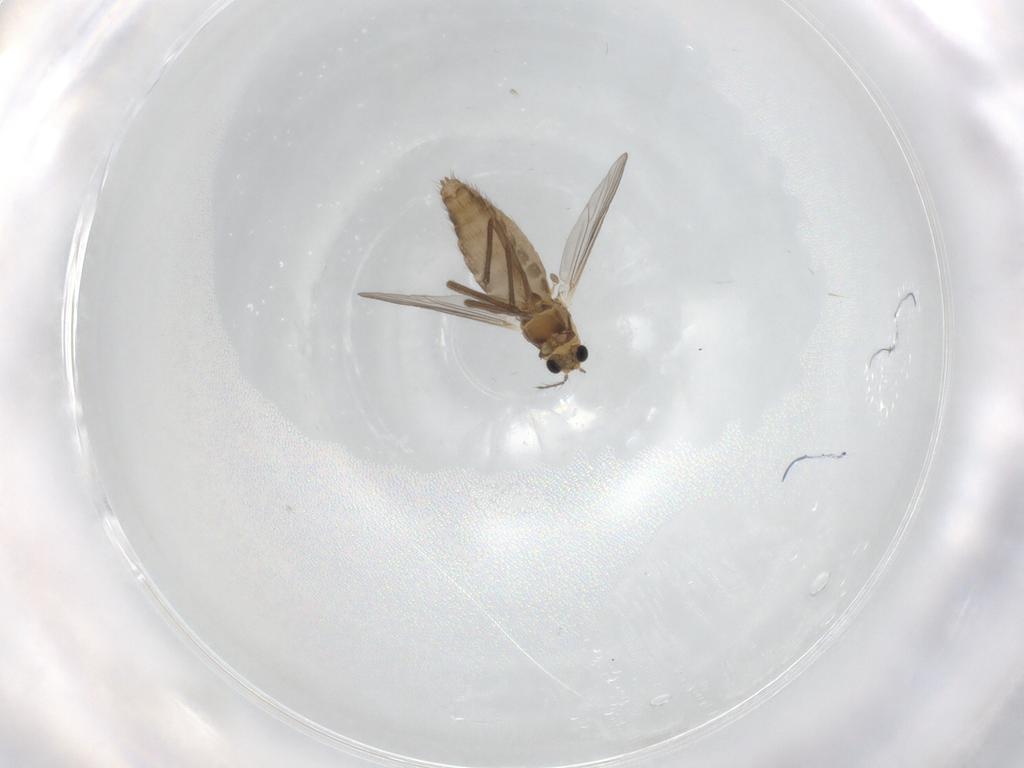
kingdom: Animalia
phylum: Arthropoda
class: Insecta
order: Diptera
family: Chironomidae
